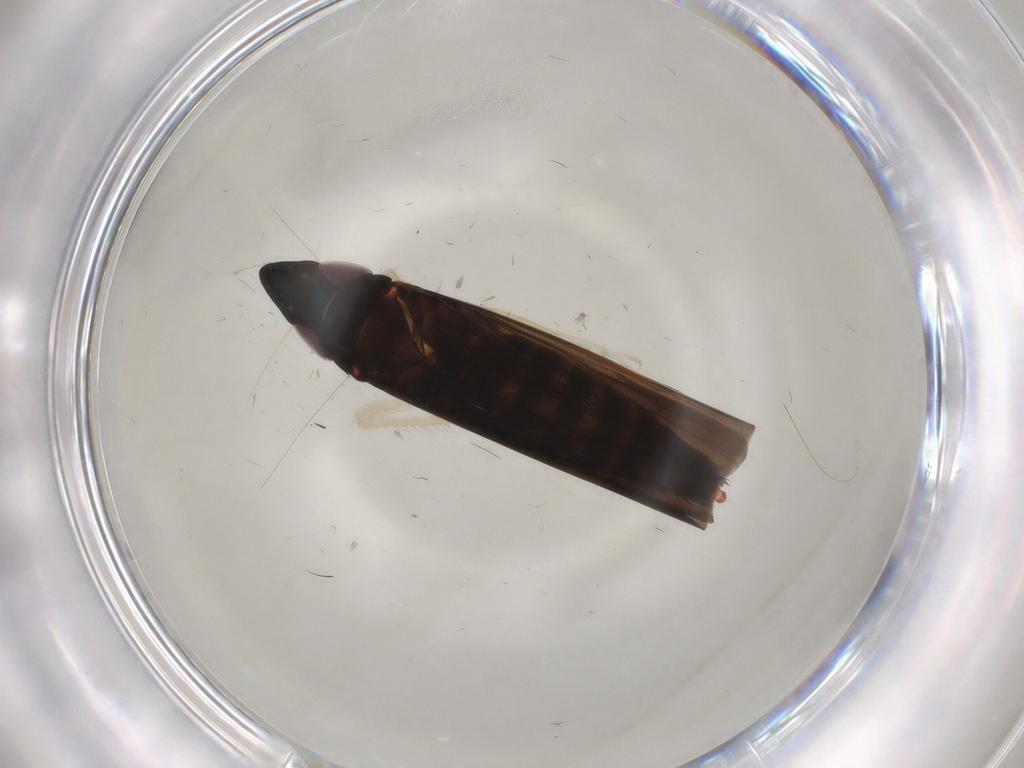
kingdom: Animalia
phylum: Arthropoda
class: Insecta
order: Hemiptera
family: Cicadellidae
